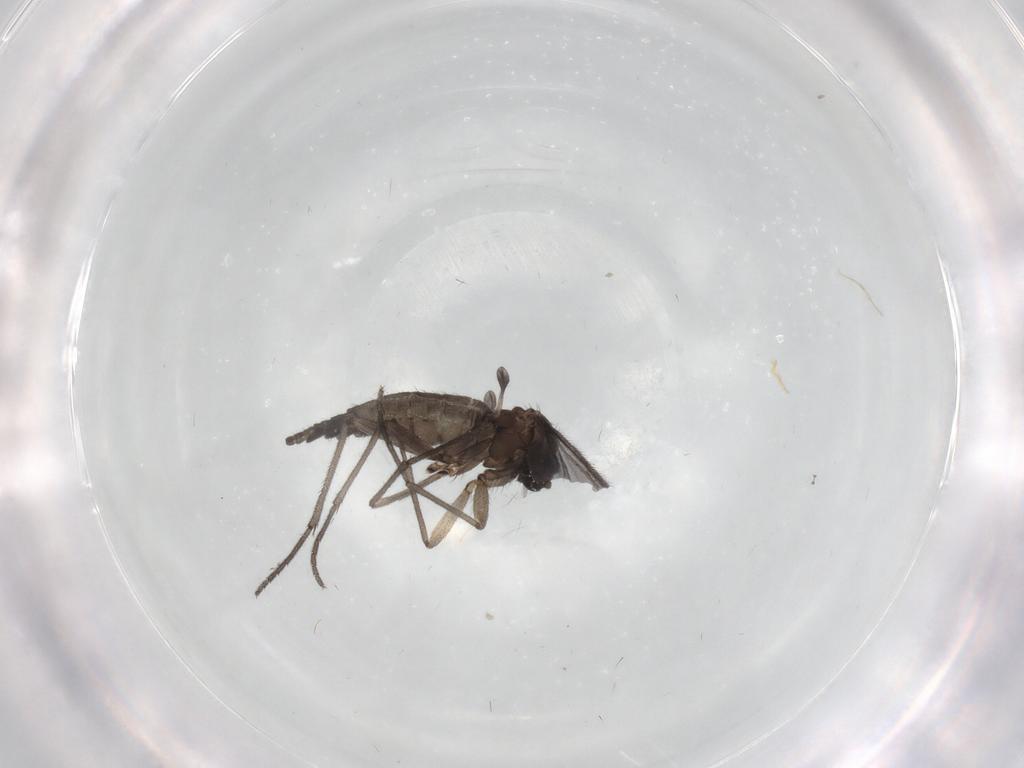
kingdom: Animalia
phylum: Arthropoda
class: Insecta
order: Diptera
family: Sciaridae
